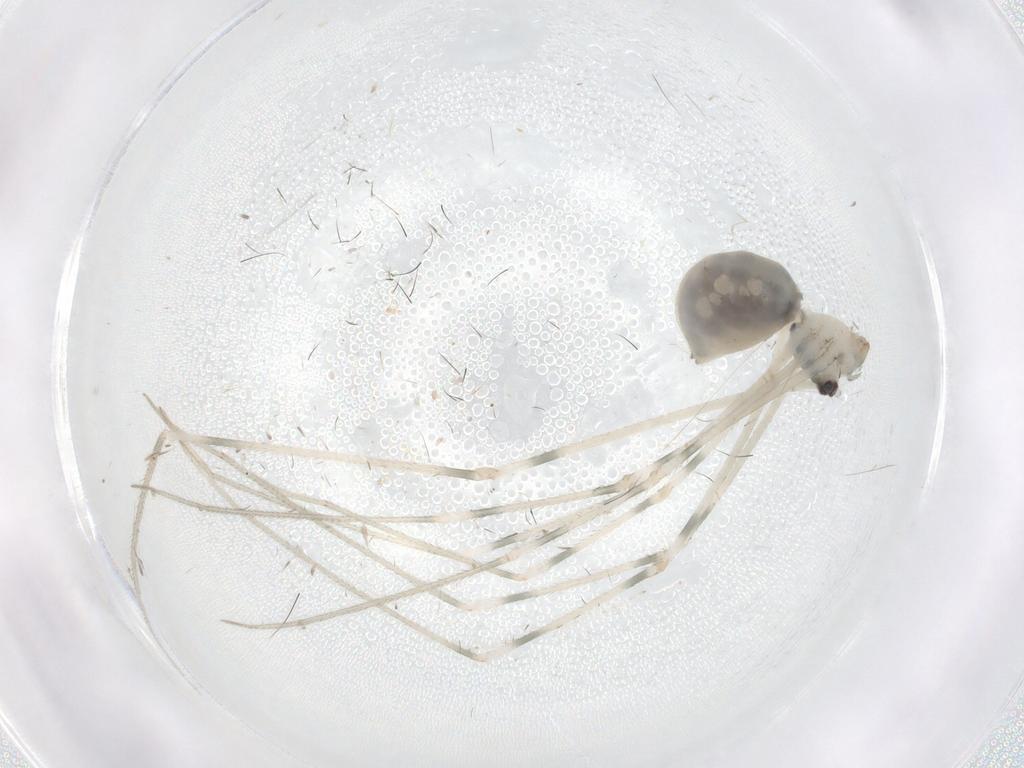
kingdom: Animalia
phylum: Arthropoda
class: Arachnida
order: Araneae
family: Pholcidae
